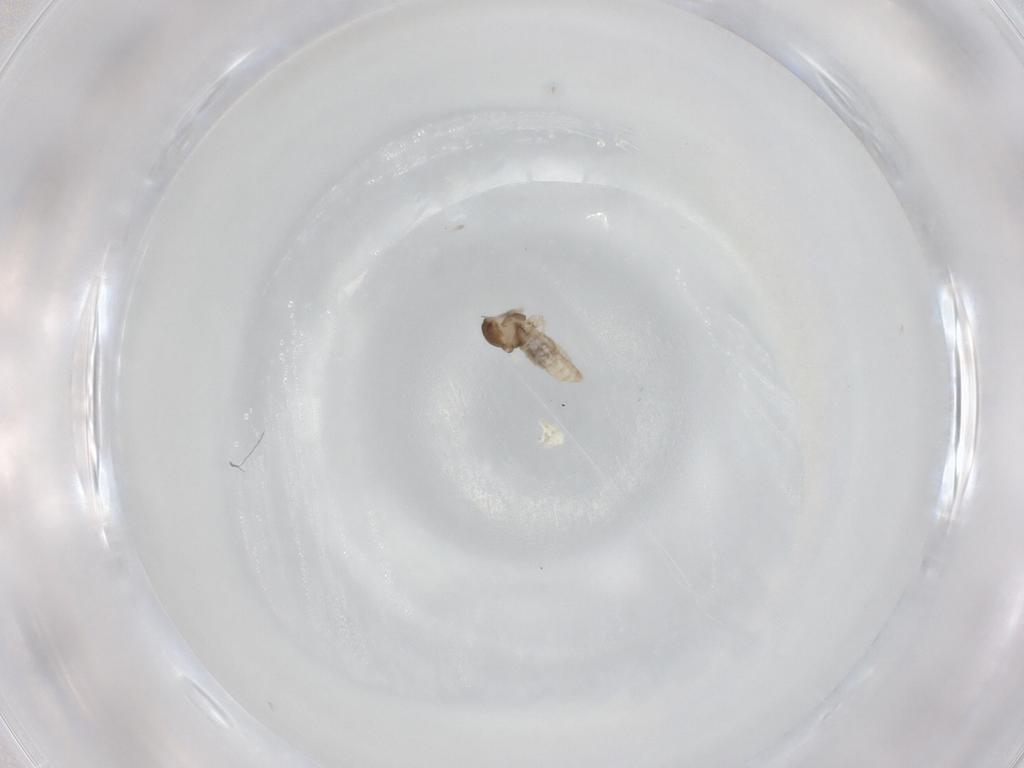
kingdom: Animalia
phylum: Arthropoda
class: Insecta
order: Diptera
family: Cecidomyiidae
